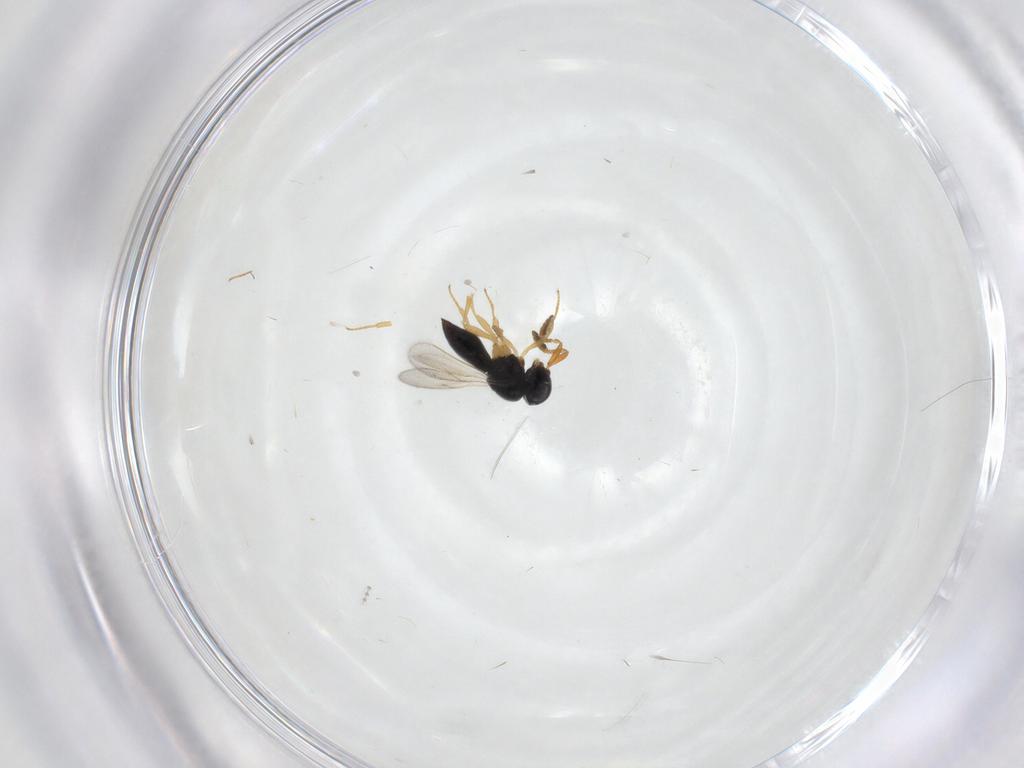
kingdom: Animalia
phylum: Arthropoda
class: Insecta
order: Hymenoptera
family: Scelionidae
